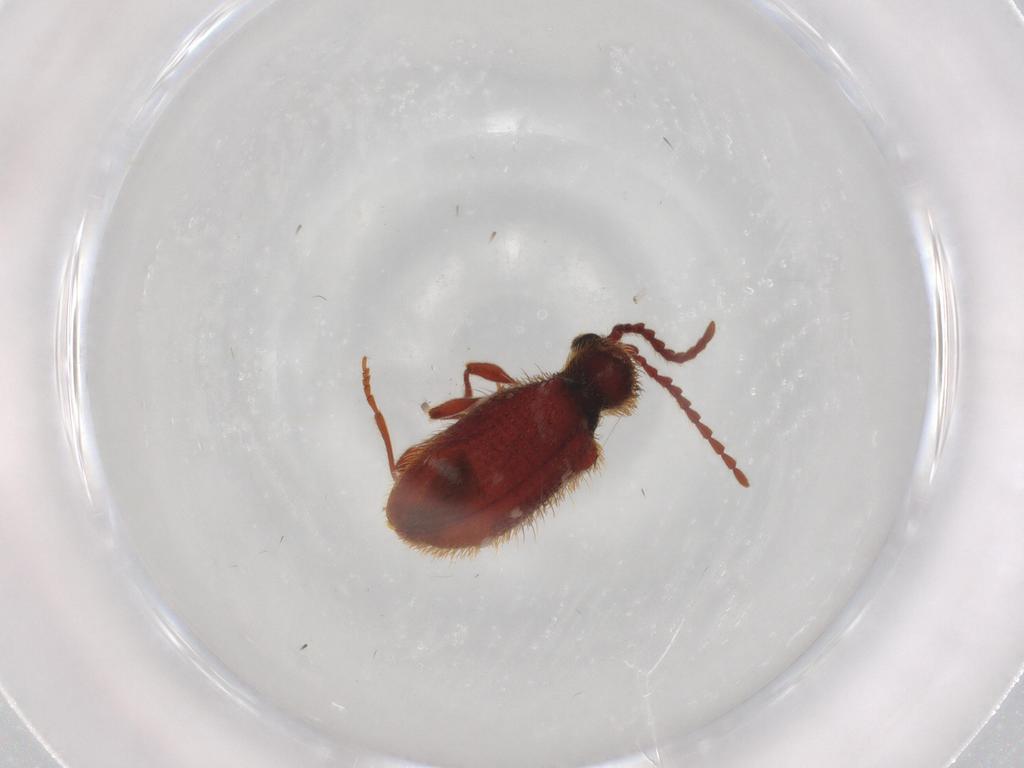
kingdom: Animalia
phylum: Arthropoda
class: Insecta
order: Coleoptera
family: Ptinidae
